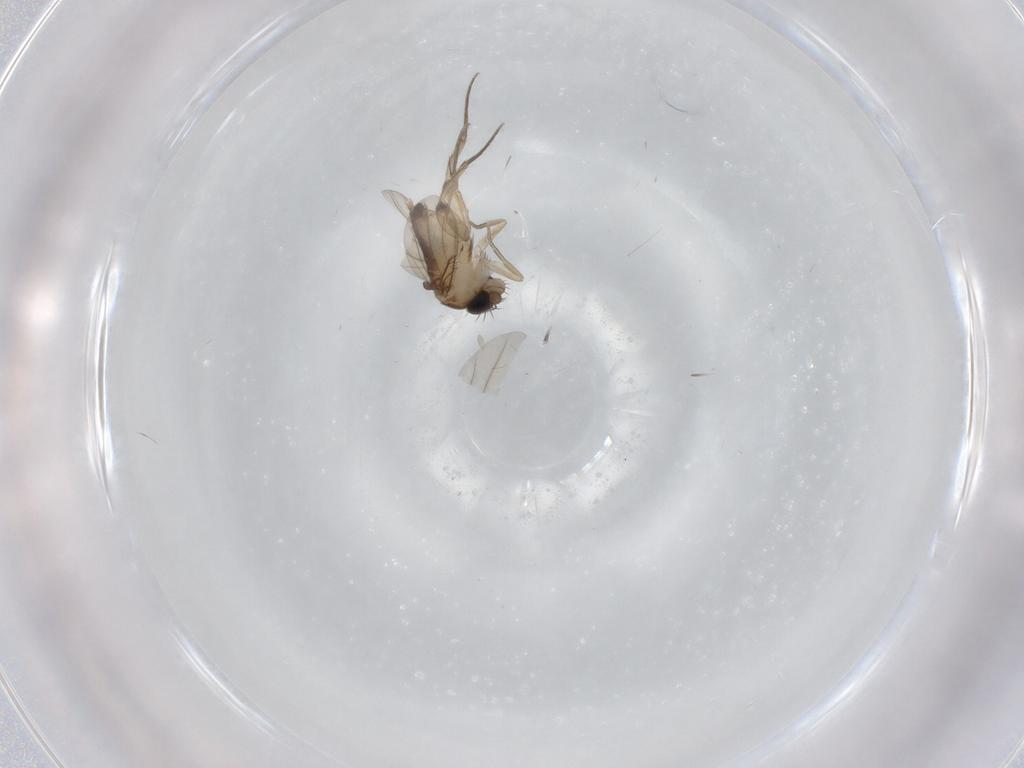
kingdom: Animalia
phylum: Arthropoda
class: Insecta
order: Diptera
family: Phoridae
